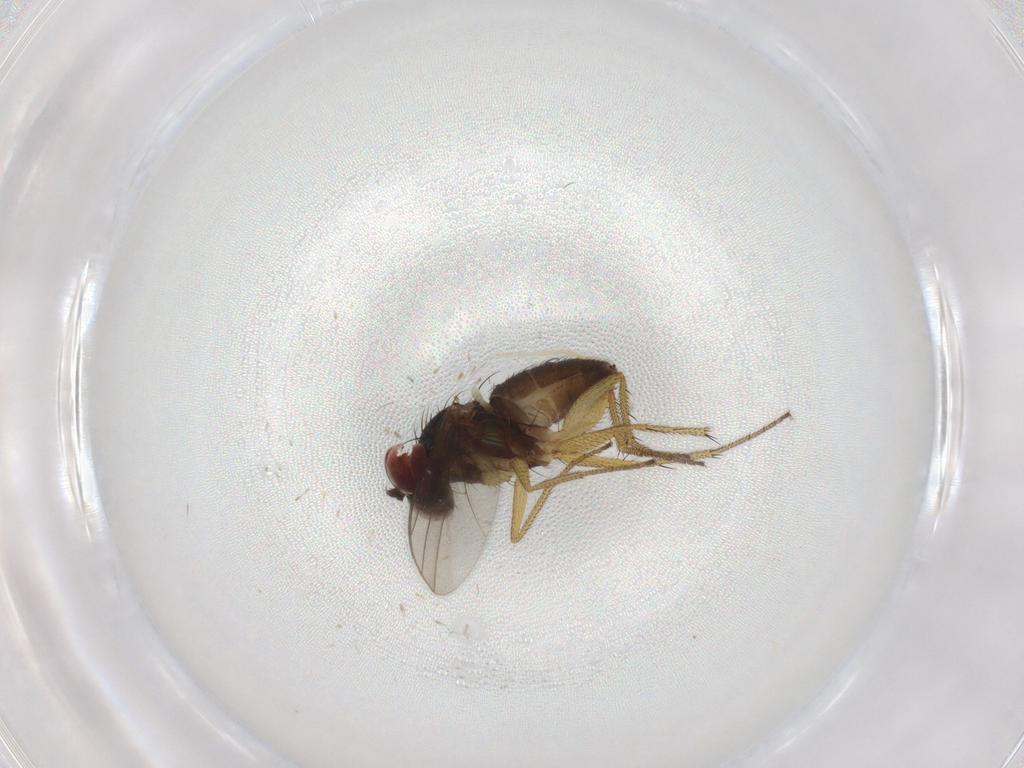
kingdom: Animalia
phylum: Arthropoda
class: Insecta
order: Diptera
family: Dolichopodidae
